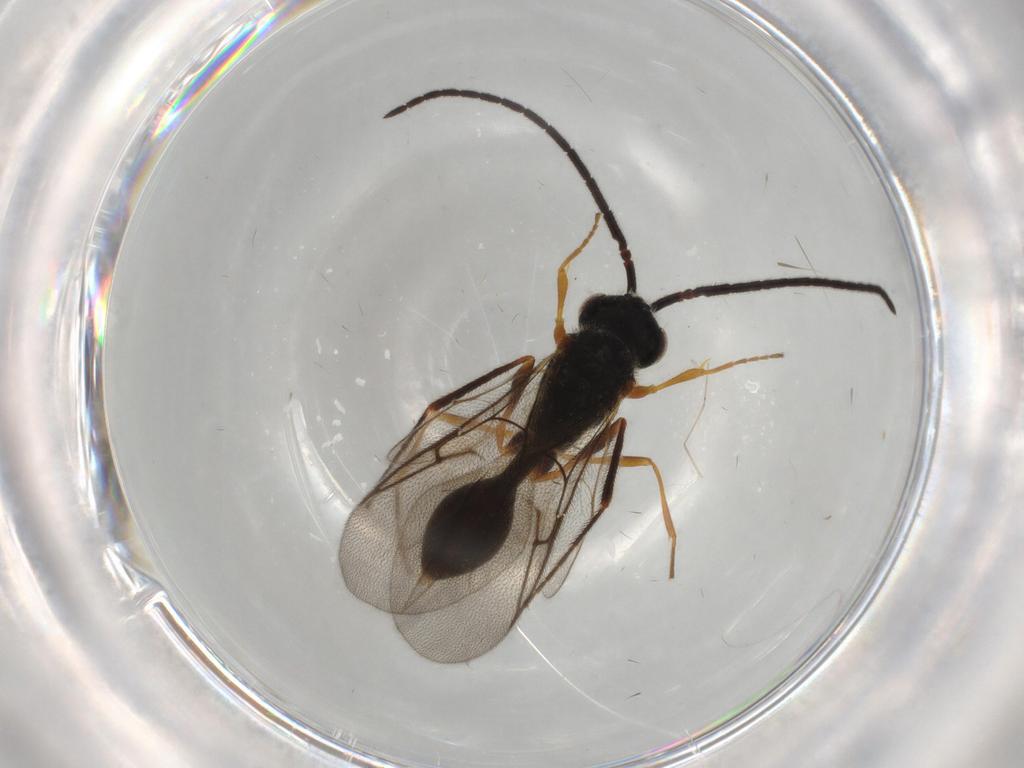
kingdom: Animalia
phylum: Arthropoda
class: Insecta
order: Hymenoptera
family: Diapriidae
